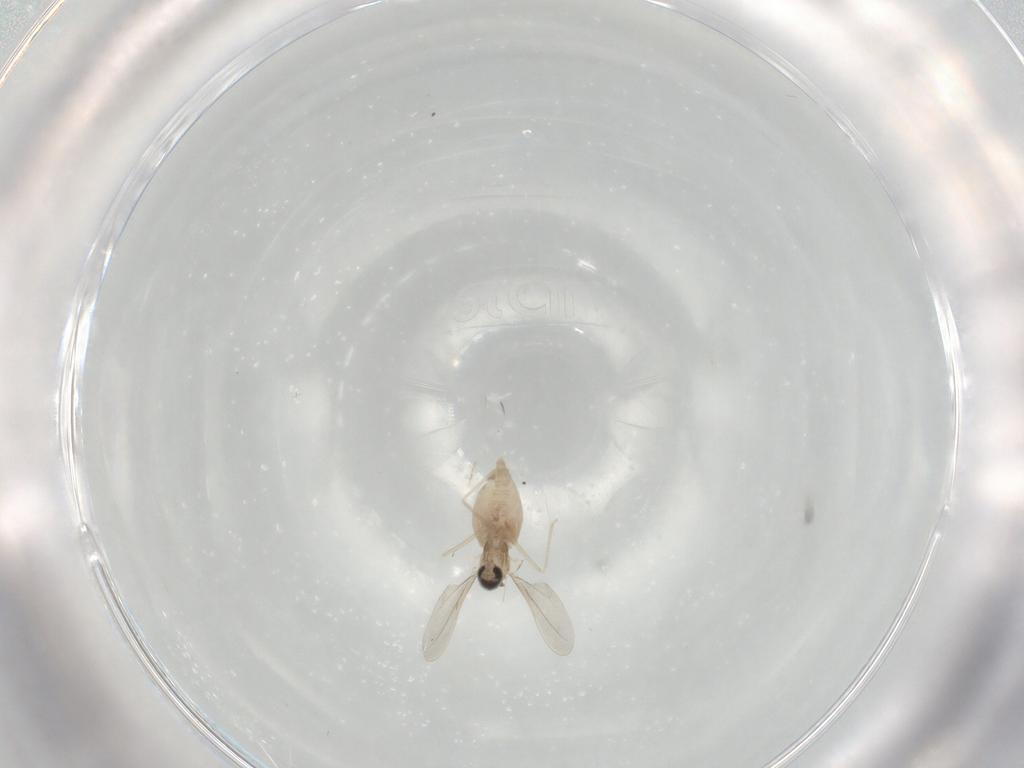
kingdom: Animalia
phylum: Arthropoda
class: Insecta
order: Diptera
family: Cecidomyiidae
